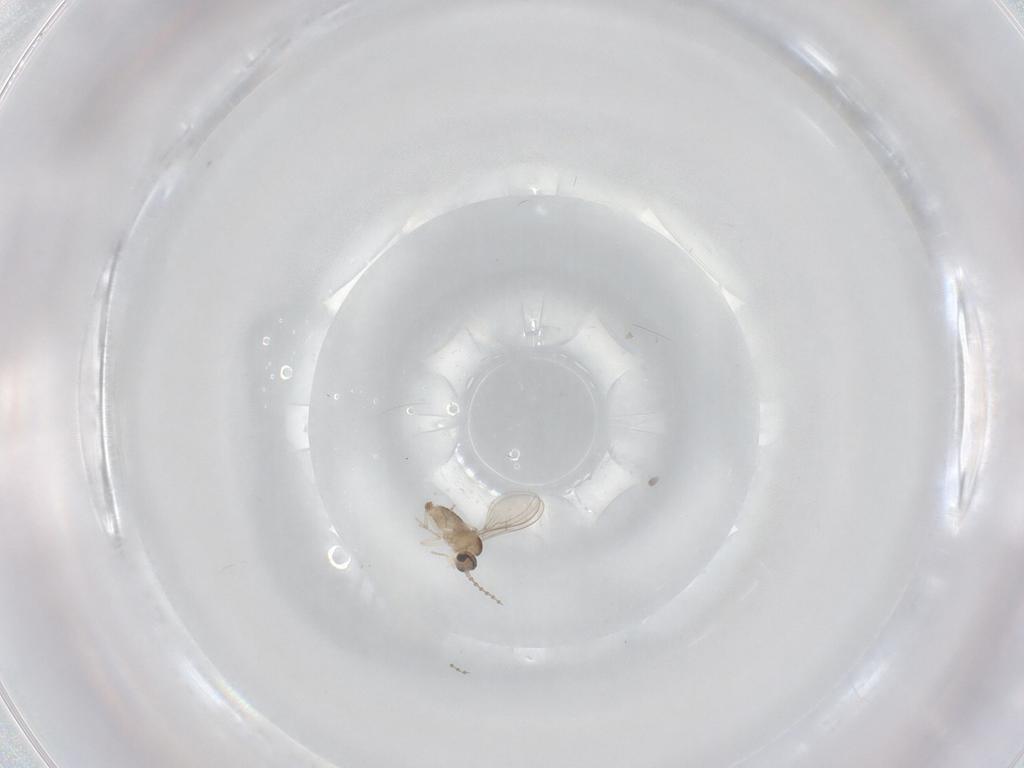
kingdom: Animalia
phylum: Arthropoda
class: Insecta
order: Diptera
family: Cecidomyiidae
